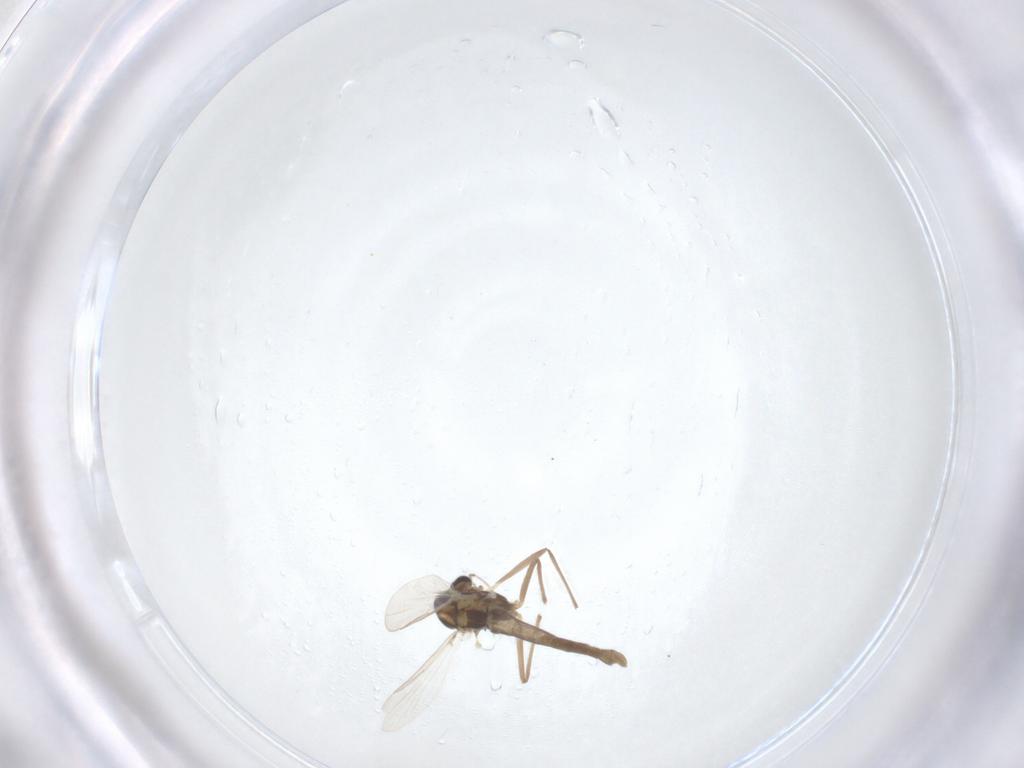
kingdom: Animalia
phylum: Arthropoda
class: Insecta
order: Diptera
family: Chironomidae
